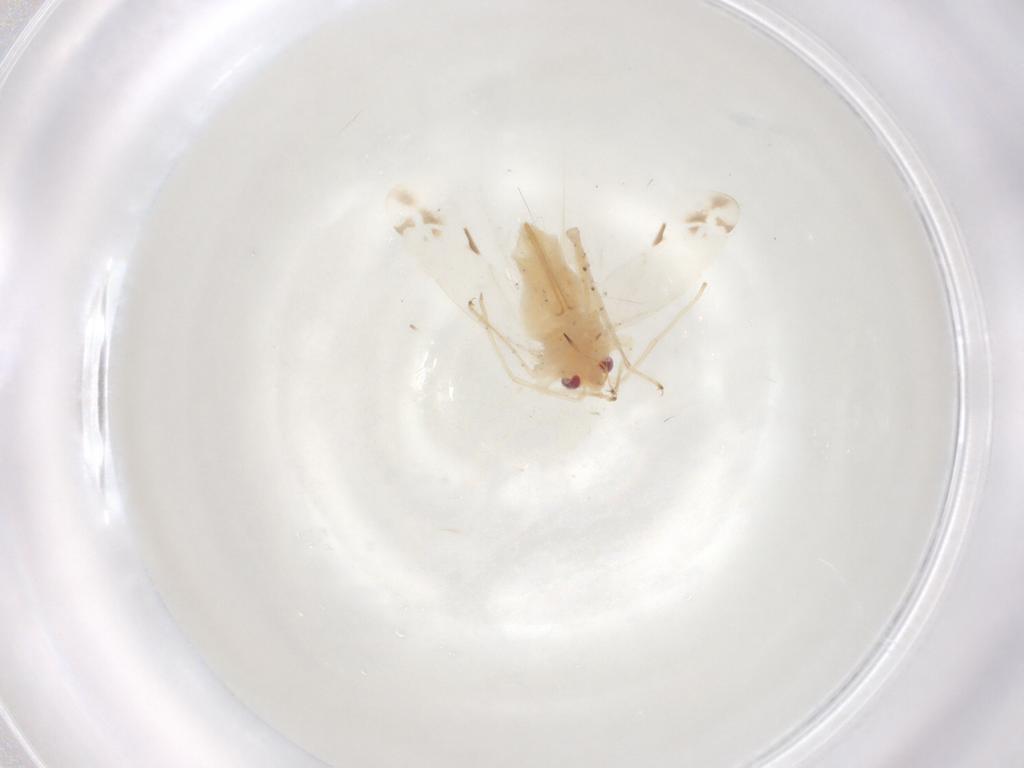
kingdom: Animalia
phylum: Arthropoda
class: Insecta
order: Hemiptera
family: Miridae
